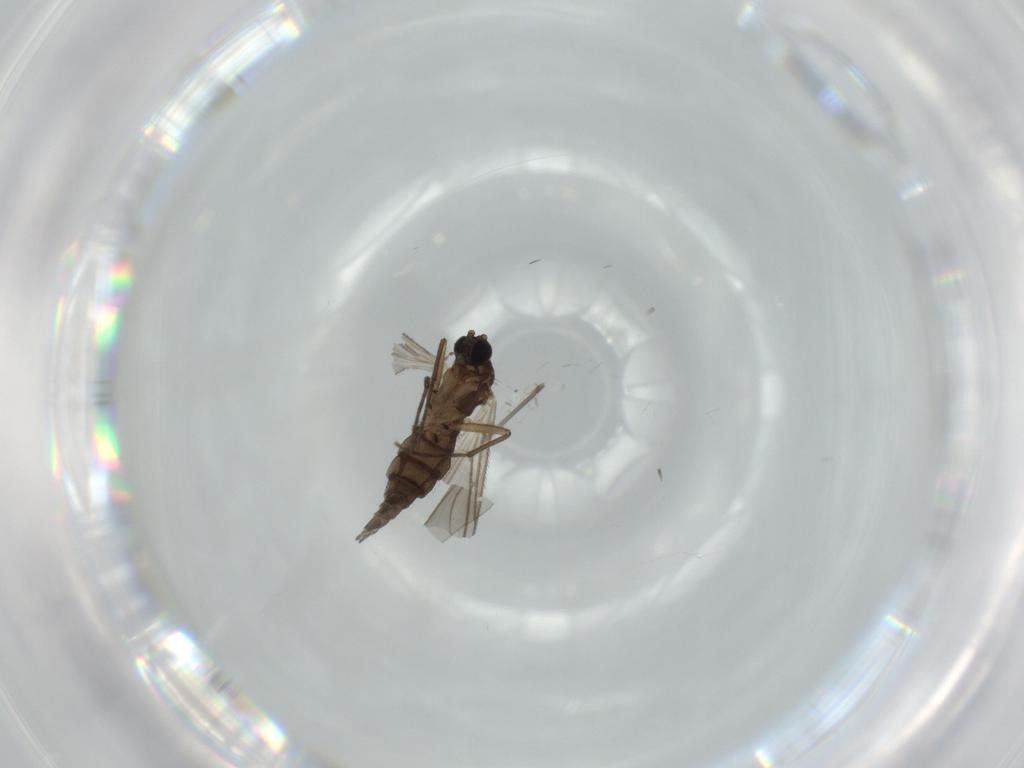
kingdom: Animalia
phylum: Arthropoda
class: Insecta
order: Diptera
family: Sciaridae
